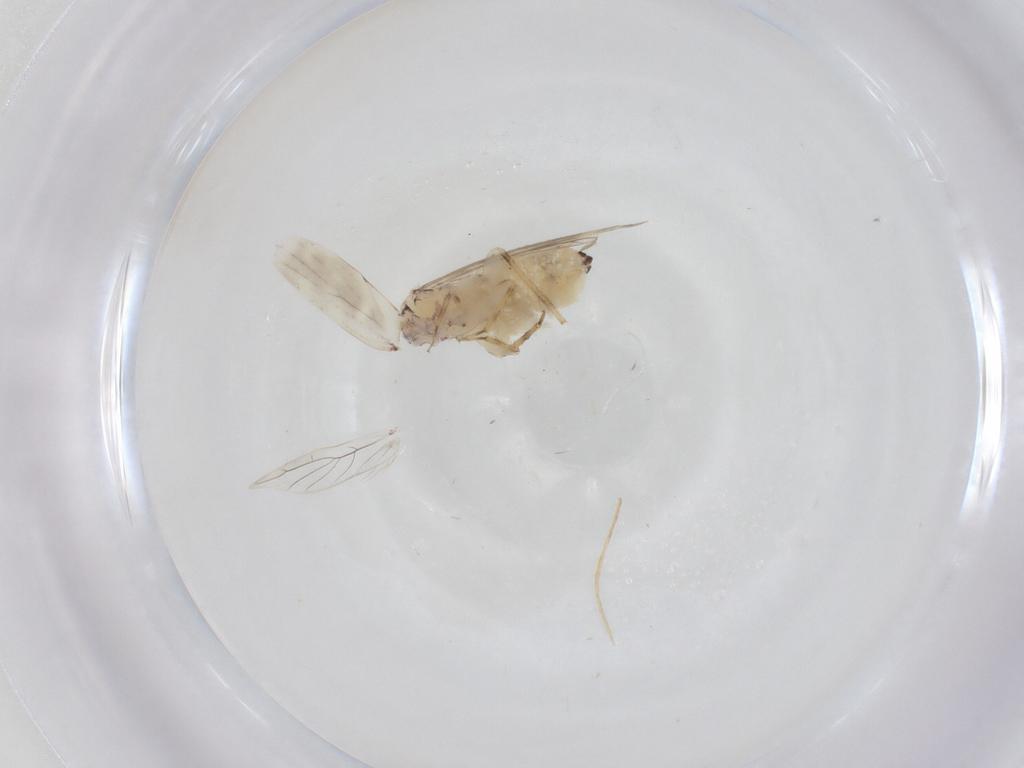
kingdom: Animalia
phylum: Arthropoda
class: Insecta
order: Psocodea
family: Lepidopsocidae
